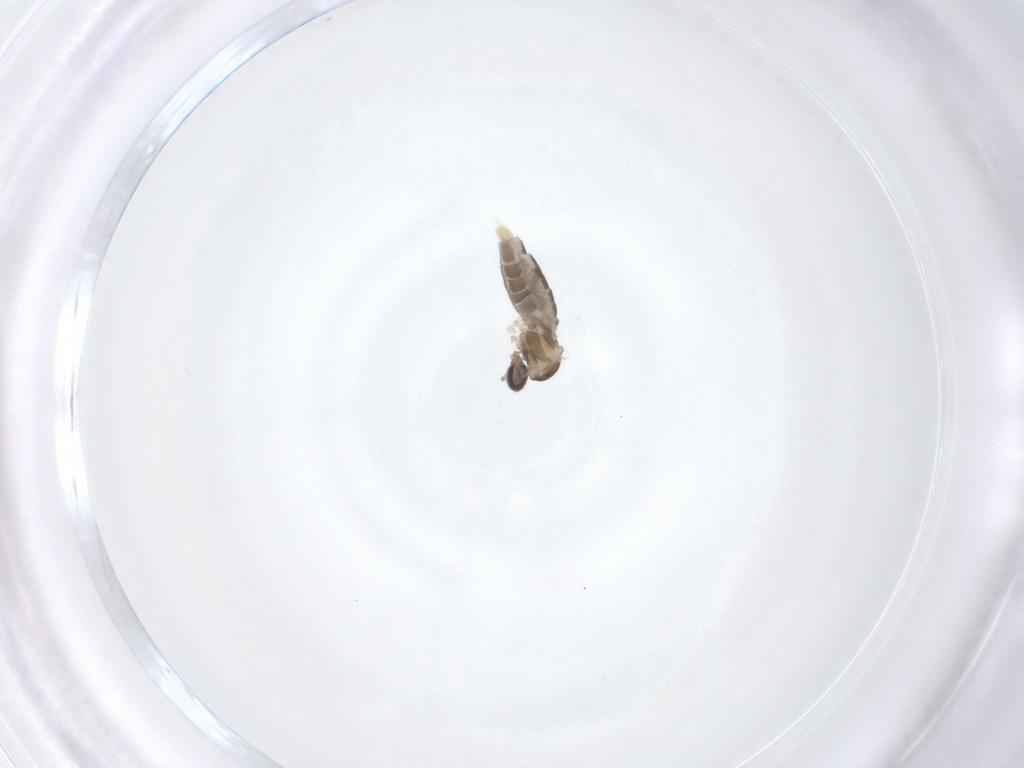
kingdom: Animalia
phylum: Arthropoda
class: Insecta
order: Diptera
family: Cecidomyiidae
